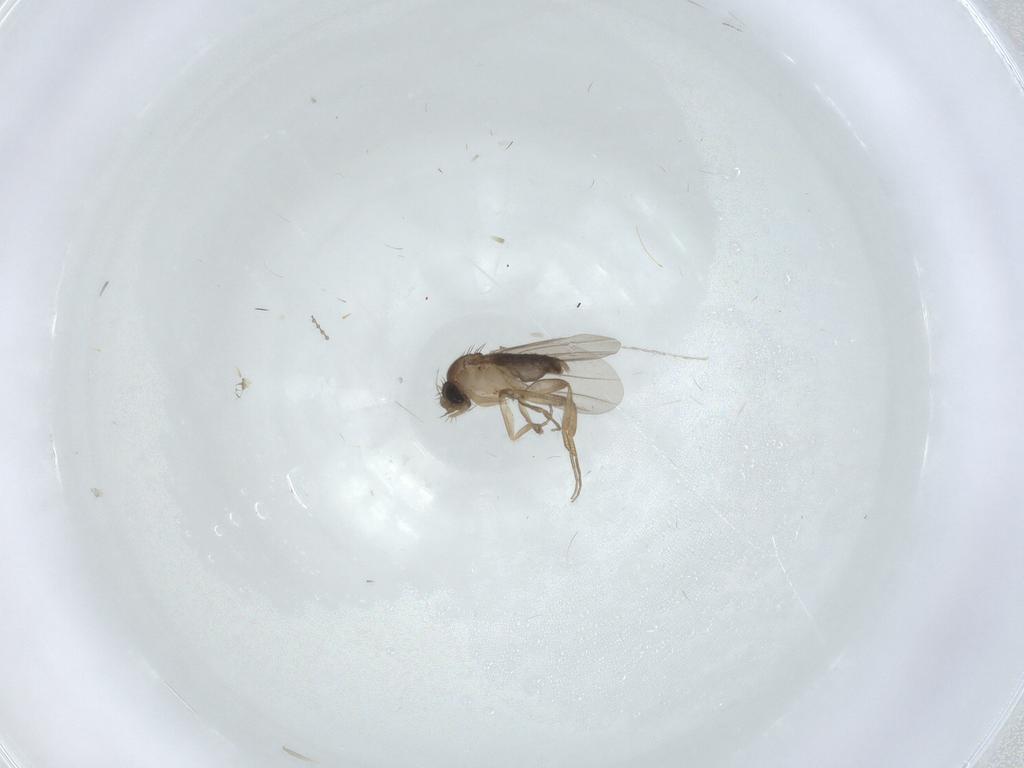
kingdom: Animalia
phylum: Arthropoda
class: Insecta
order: Diptera
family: Phoridae
